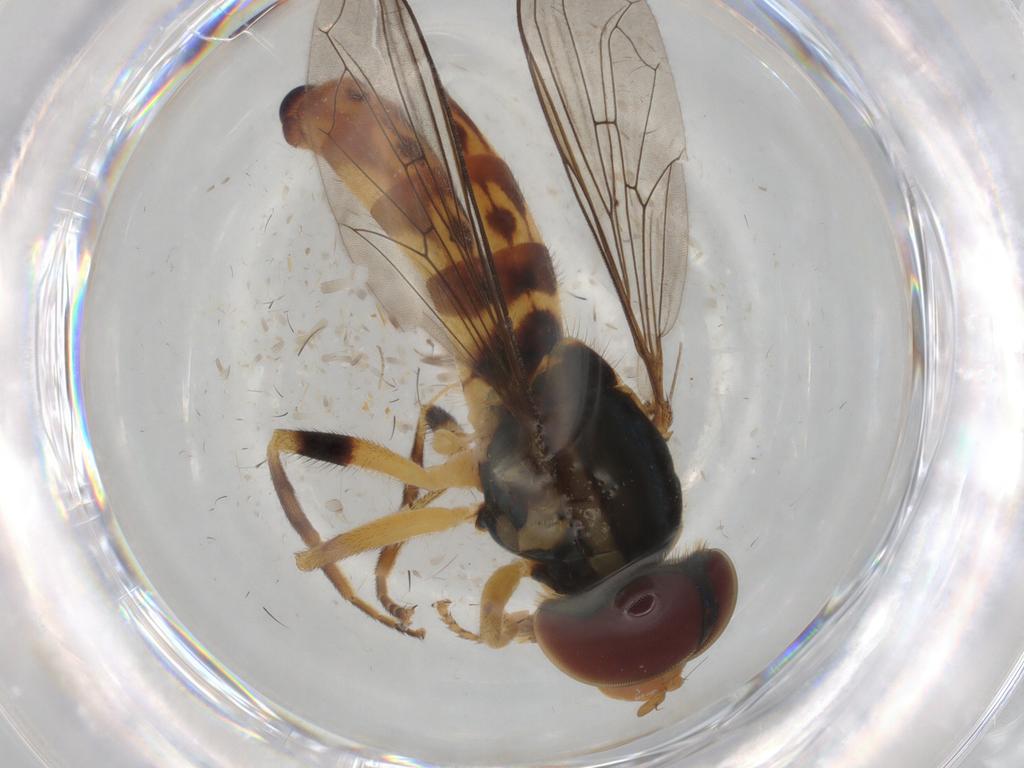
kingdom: Animalia
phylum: Arthropoda
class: Insecta
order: Diptera
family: Syrphidae
